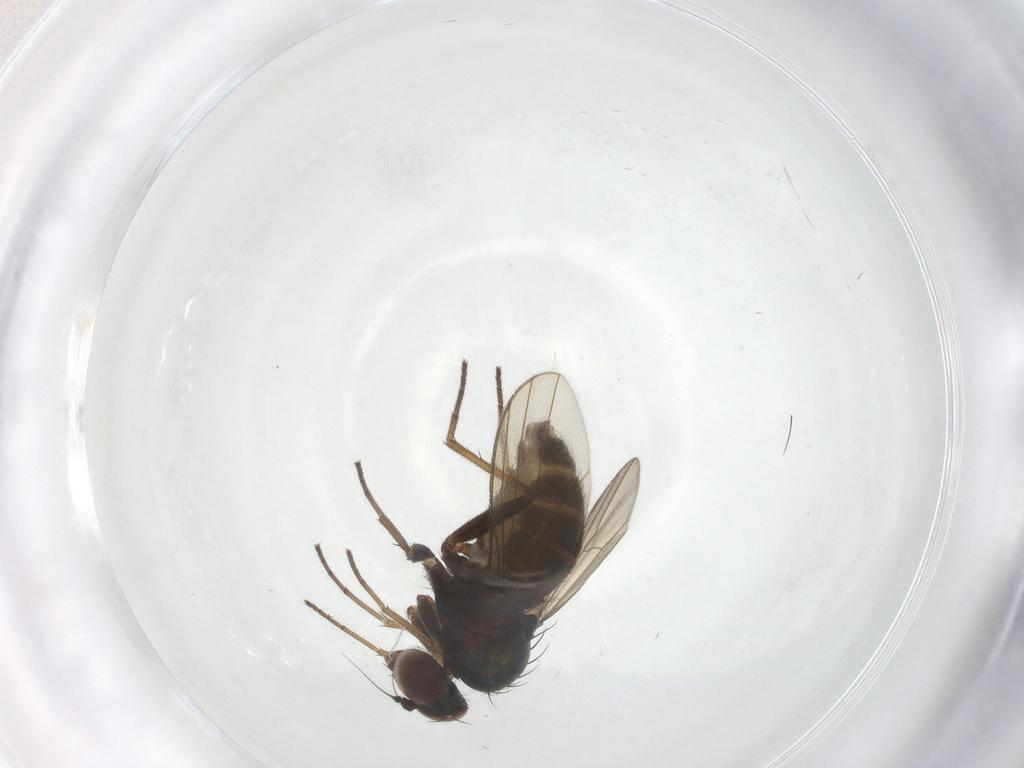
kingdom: Animalia
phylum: Arthropoda
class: Insecta
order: Diptera
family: Dolichopodidae
